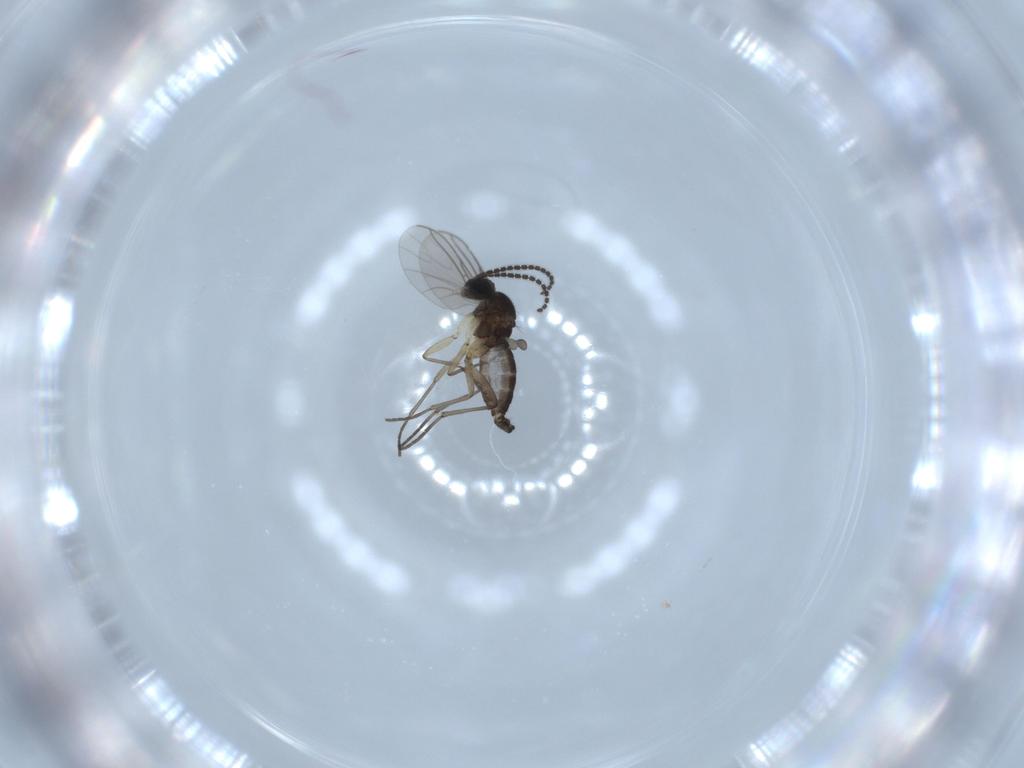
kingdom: Animalia
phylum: Arthropoda
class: Insecta
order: Diptera
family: Sciaridae
